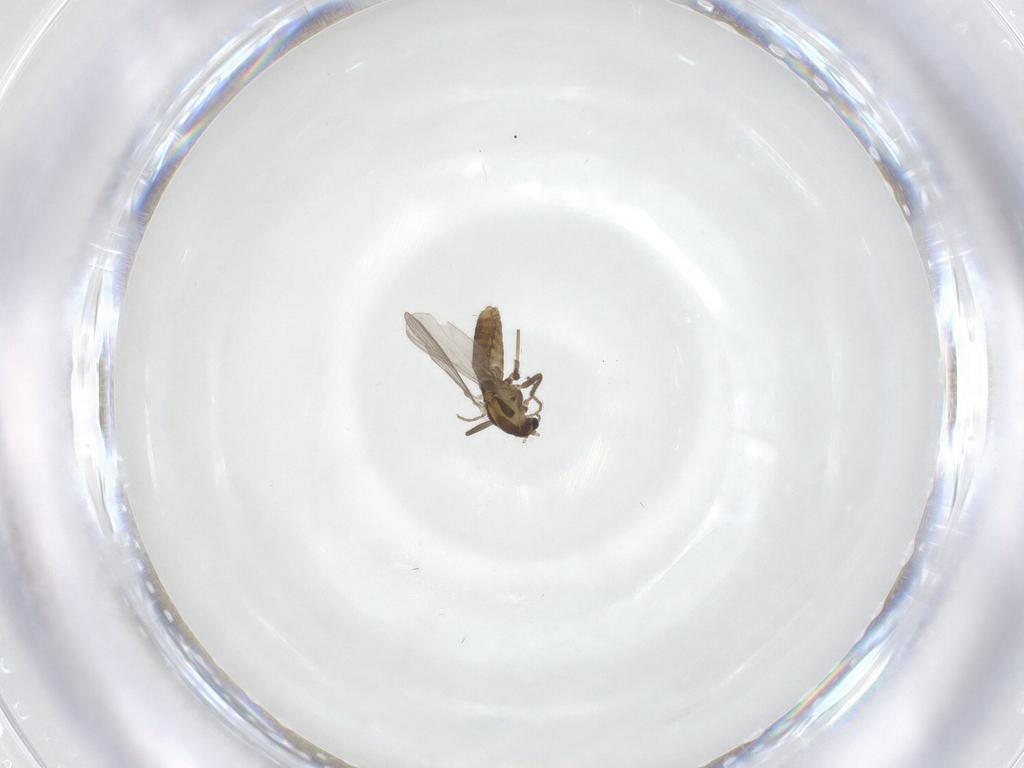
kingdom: Animalia
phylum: Arthropoda
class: Insecta
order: Diptera
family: Chironomidae
